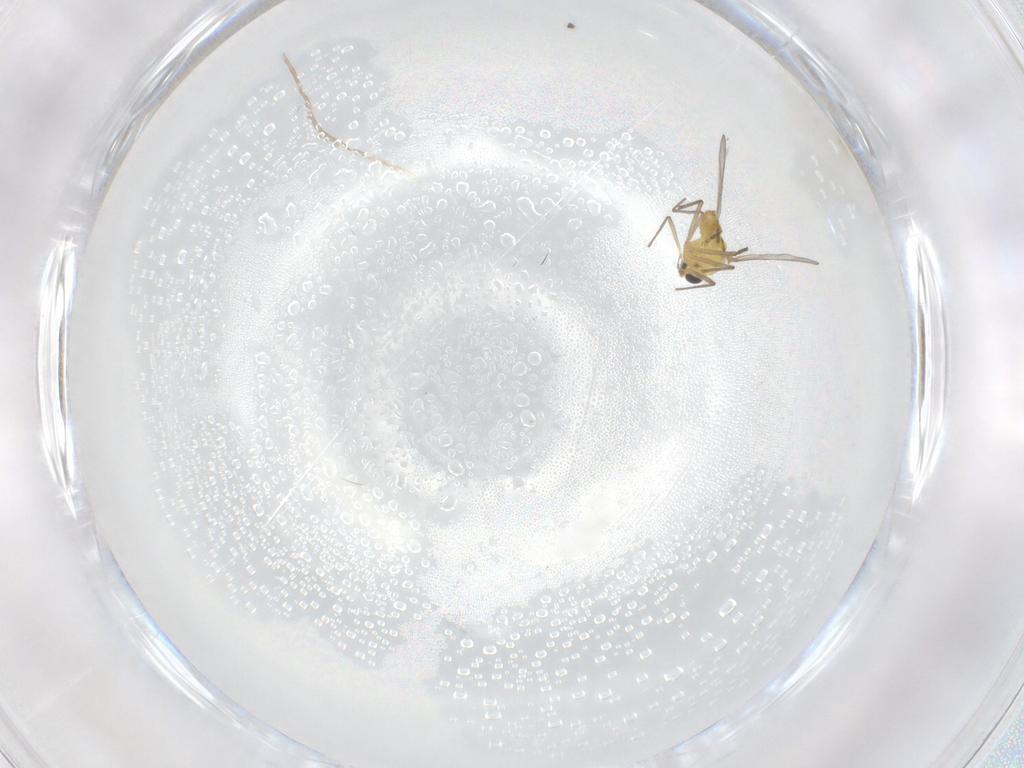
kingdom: Animalia
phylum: Arthropoda
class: Insecta
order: Diptera
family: Chironomidae
